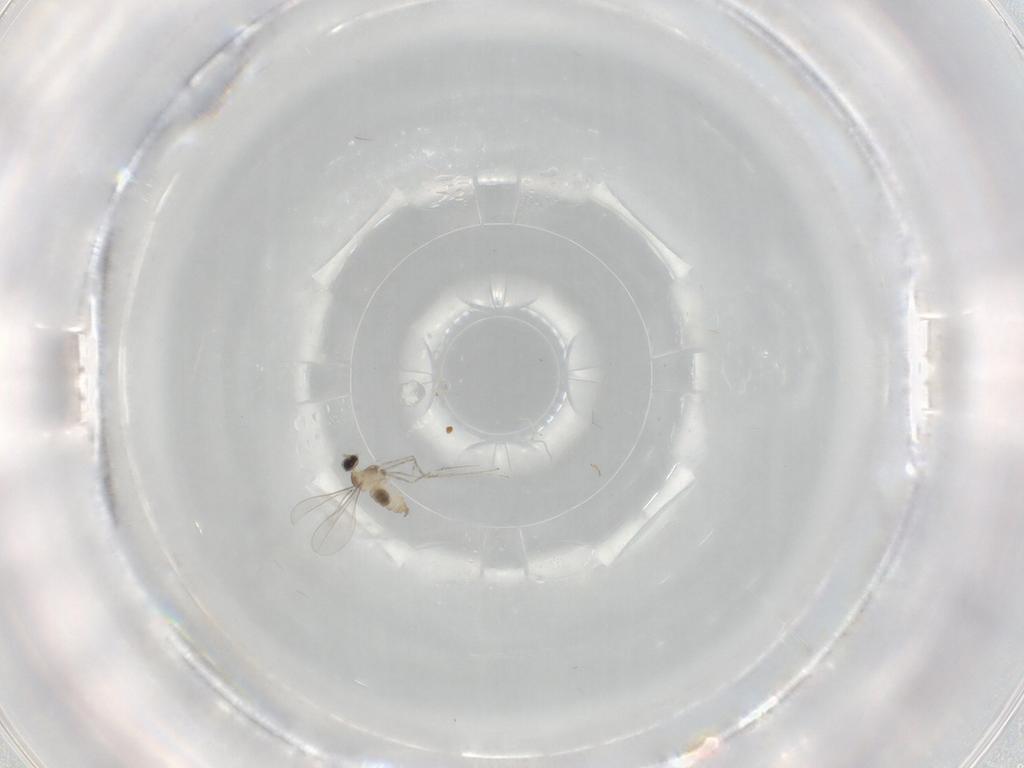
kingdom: Animalia
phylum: Arthropoda
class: Insecta
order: Diptera
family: Cecidomyiidae
